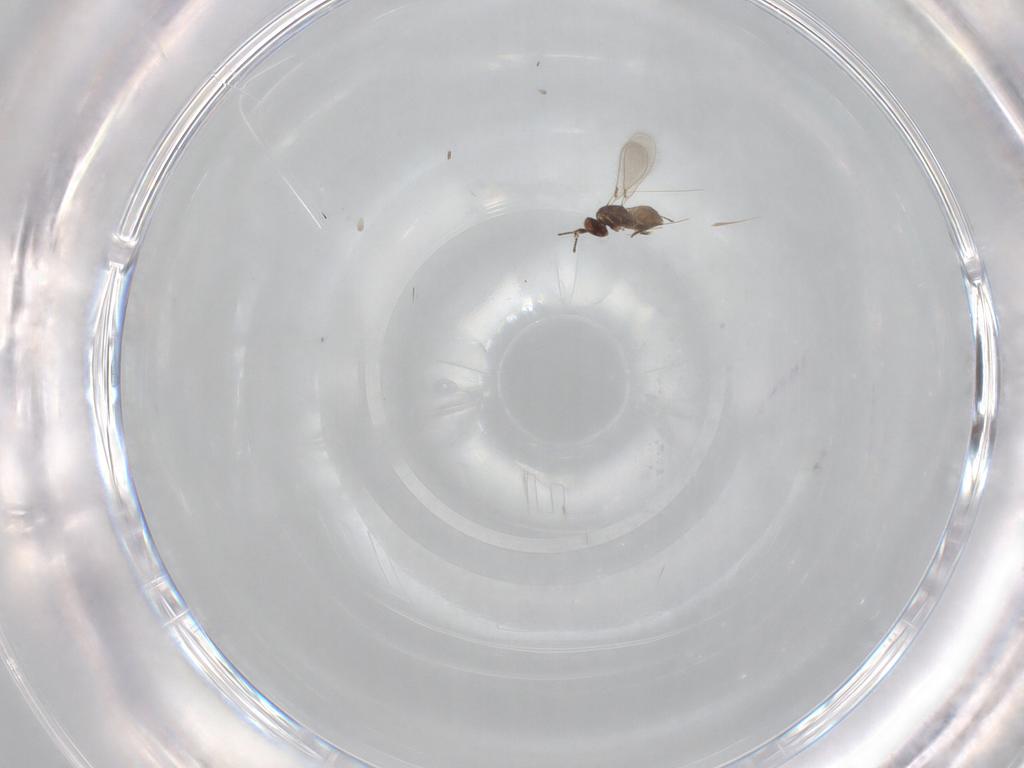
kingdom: Animalia
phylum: Arthropoda
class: Insecta
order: Hymenoptera
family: Mymaridae
